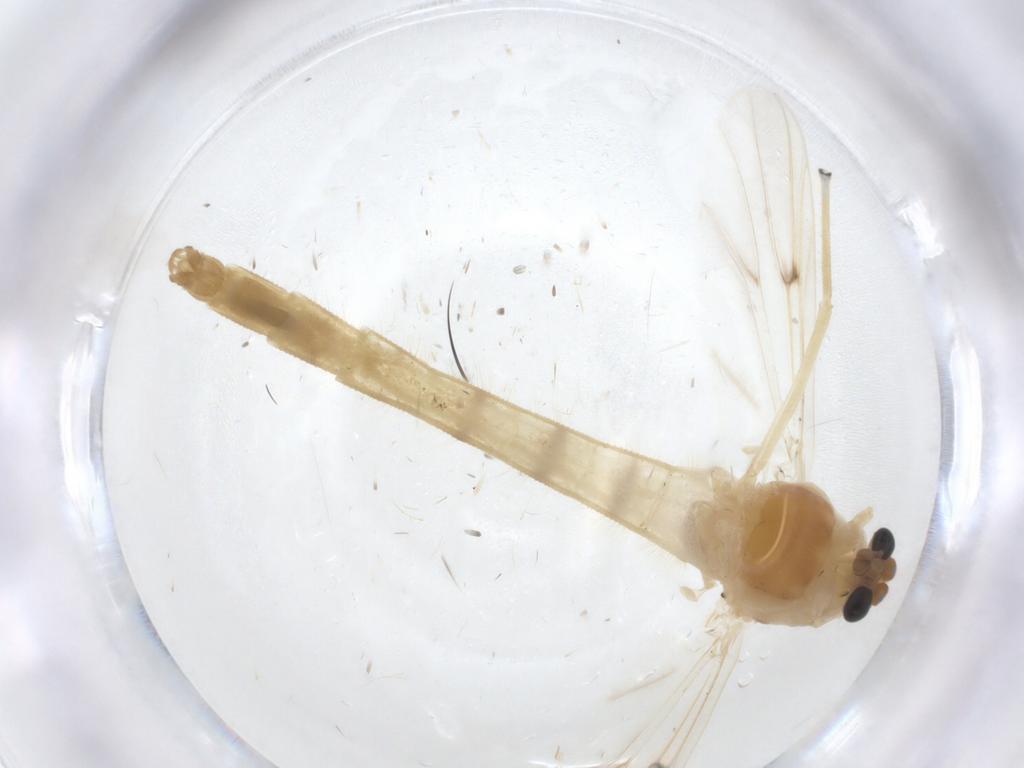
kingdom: Animalia
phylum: Arthropoda
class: Insecta
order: Diptera
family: Chironomidae
